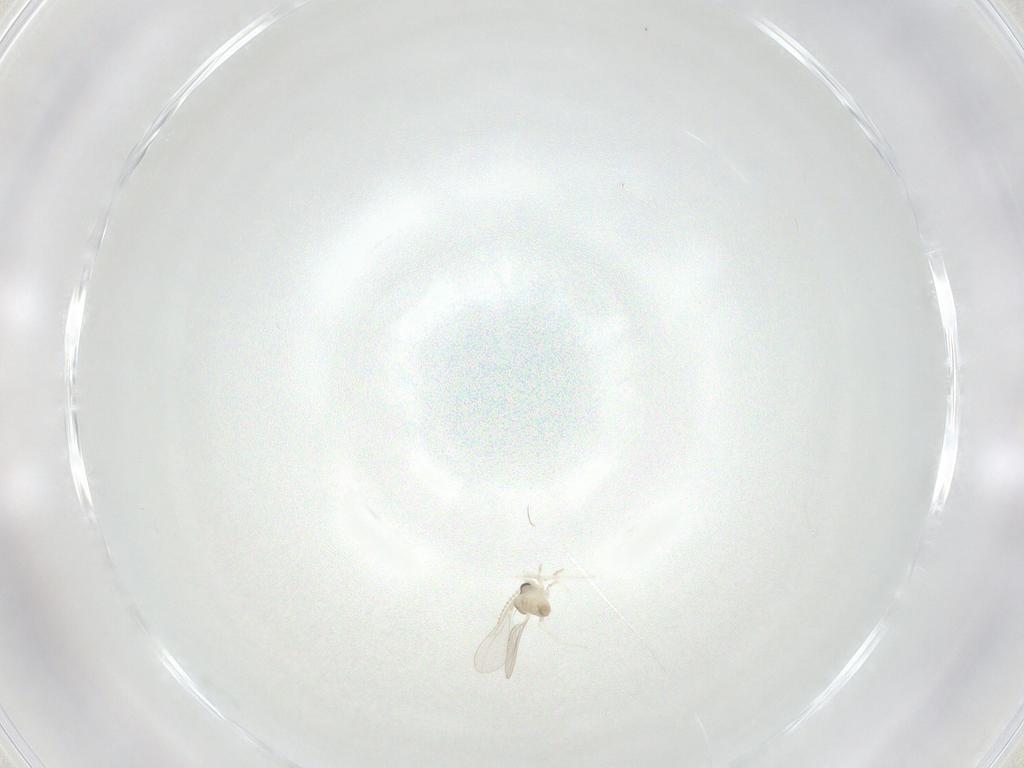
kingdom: Animalia
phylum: Arthropoda
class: Insecta
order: Diptera
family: Cecidomyiidae
